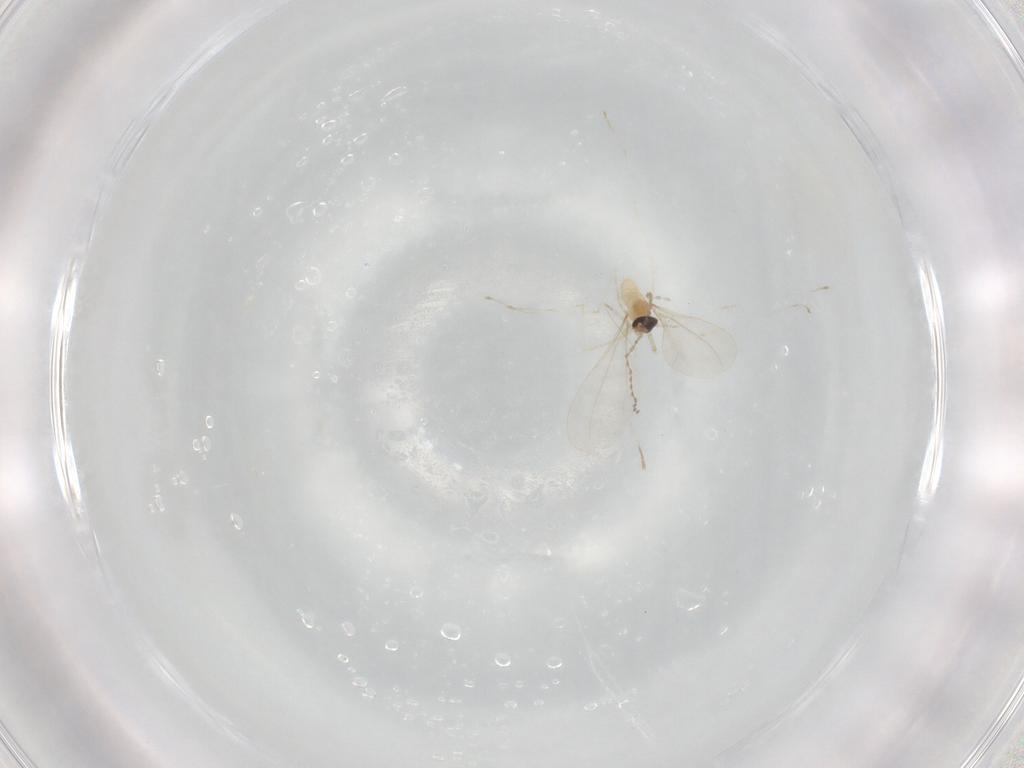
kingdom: Animalia
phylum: Arthropoda
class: Insecta
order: Diptera
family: Cecidomyiidae
